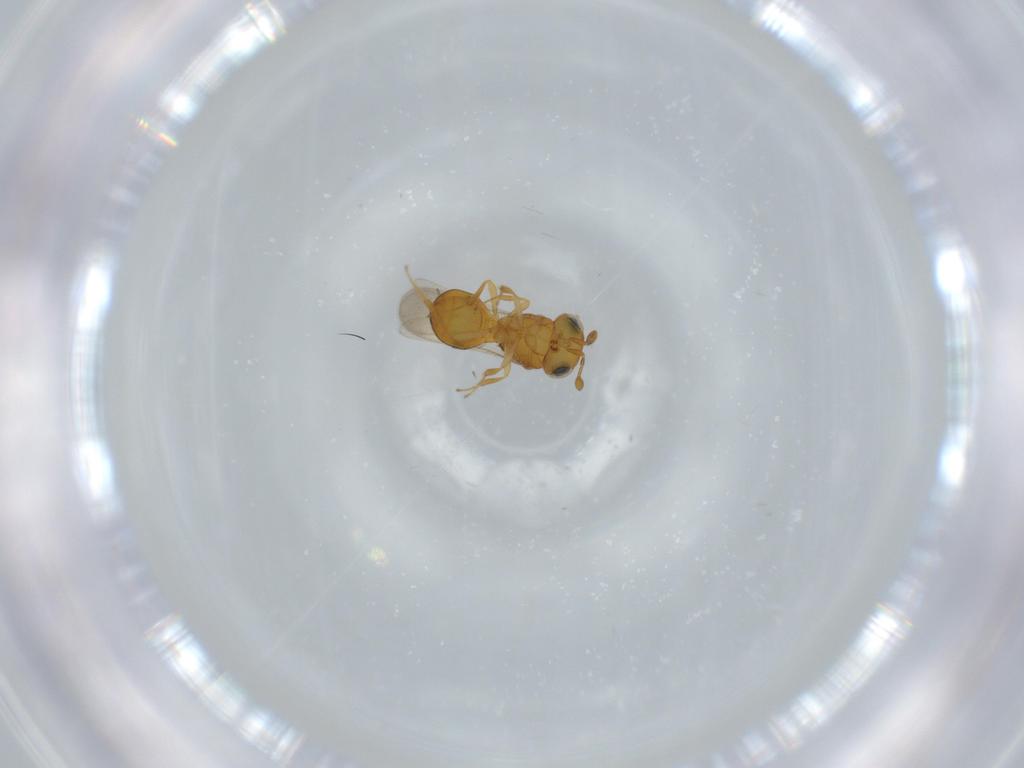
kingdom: Animalia
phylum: Arthropoda
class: Insecta
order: Hymenoptera
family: Scelionidae
